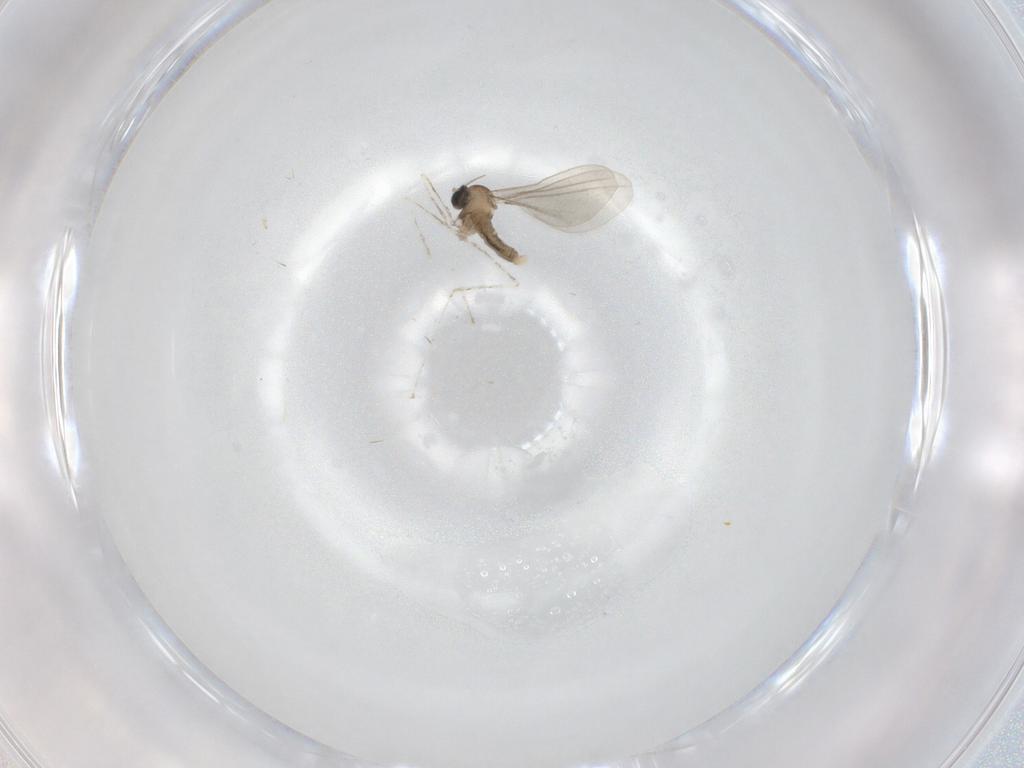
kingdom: Animalia
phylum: Arthropoda
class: Insecta
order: Diptera
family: Cecidomyiidae
